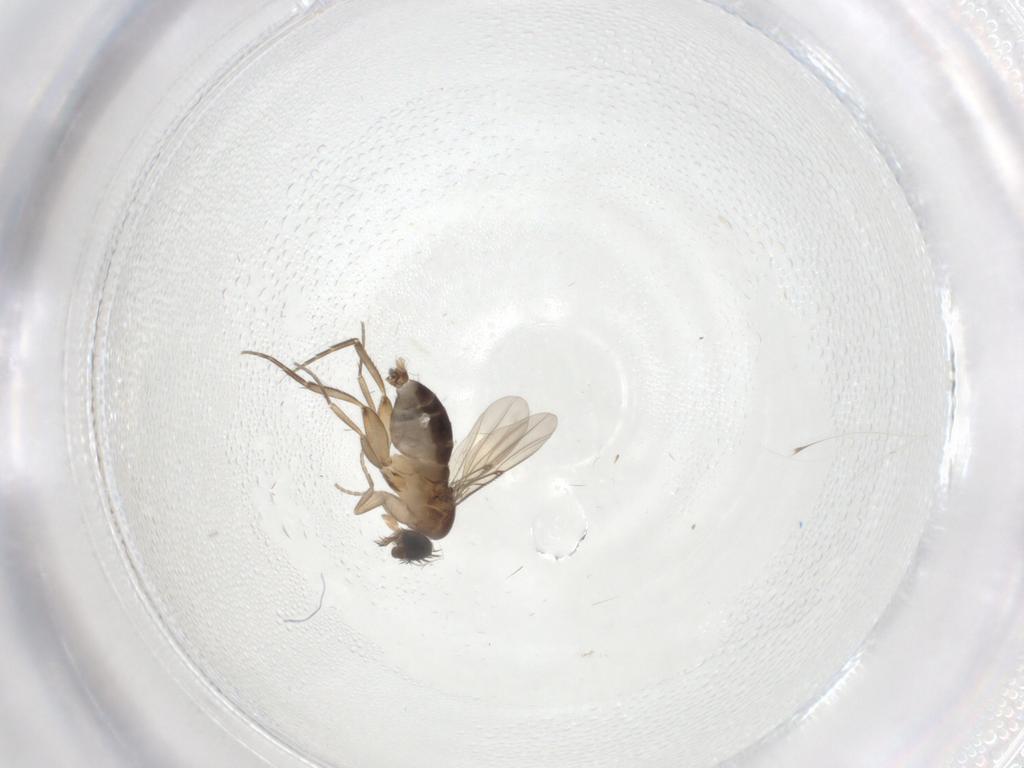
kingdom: Animalia
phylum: Arthropoda
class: Insecta
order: Diptera
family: Phoridae
